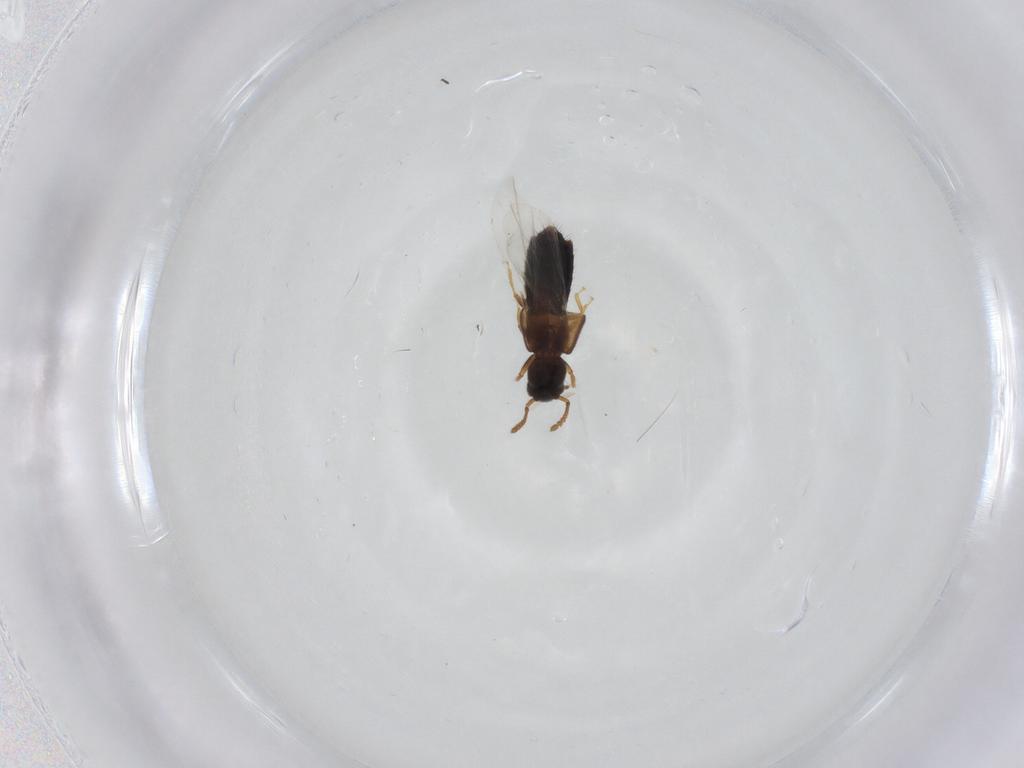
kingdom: Animalia
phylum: Arthropoda
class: Insecta
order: Coleoptera
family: Staphylinidae
